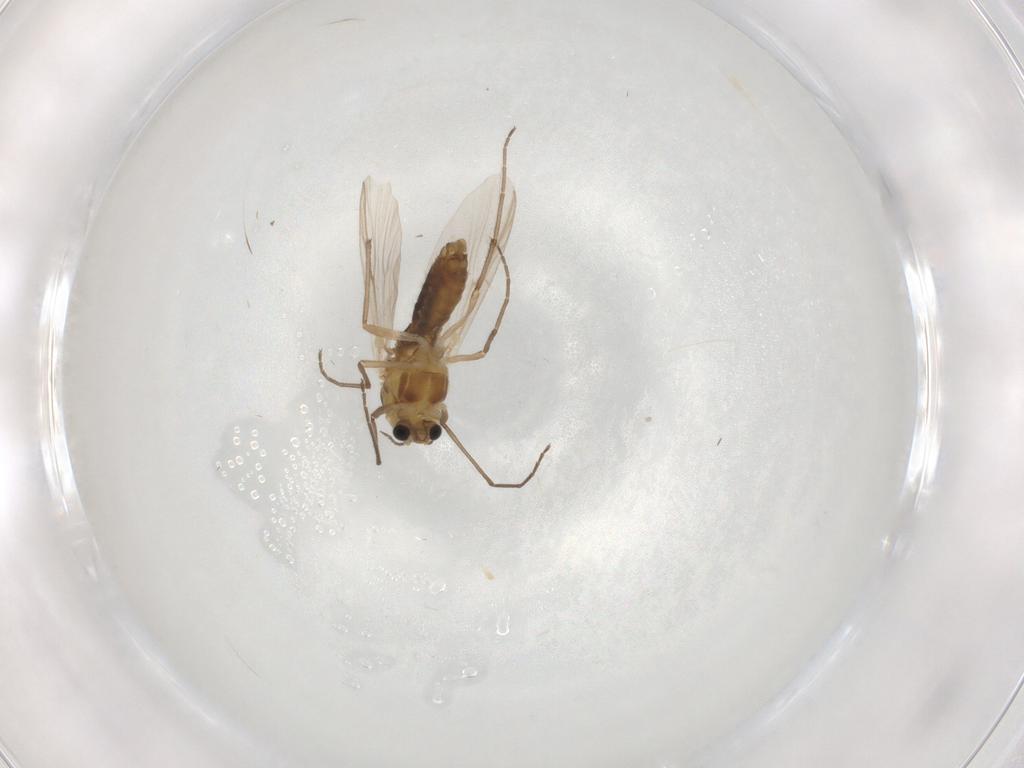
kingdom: Animalia
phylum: Arthropoda
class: Insecta
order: Diptera
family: Chironomidae
